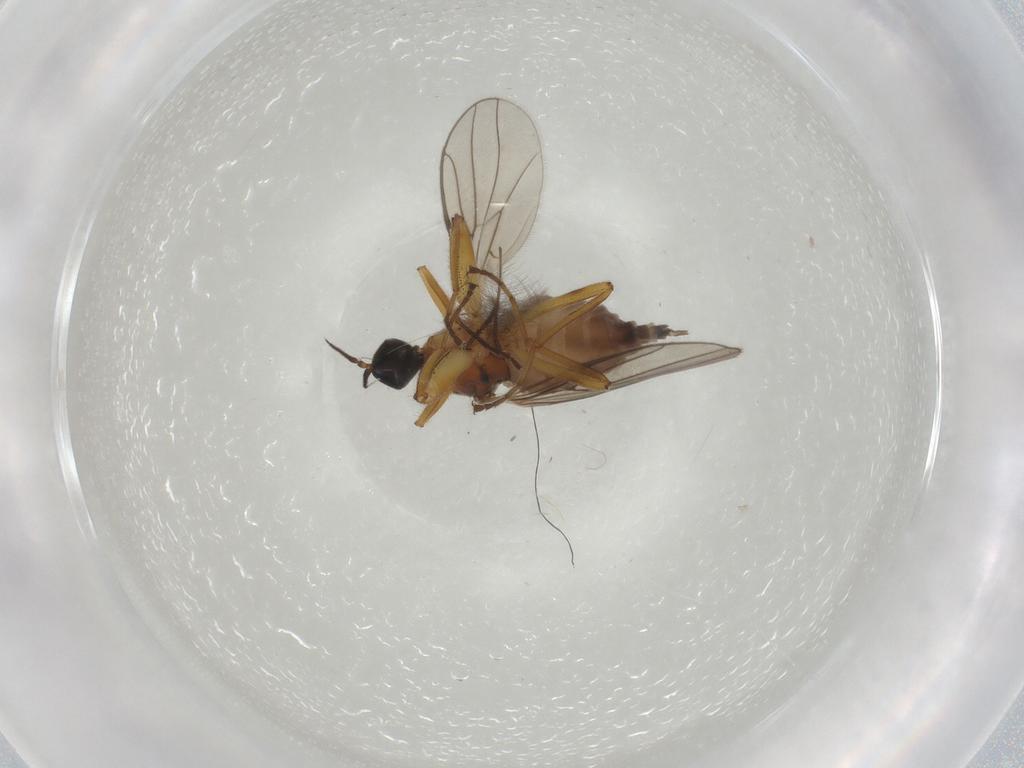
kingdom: Animalia
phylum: Arthropoda
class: Insecta
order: Diptera
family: Hybotidae
